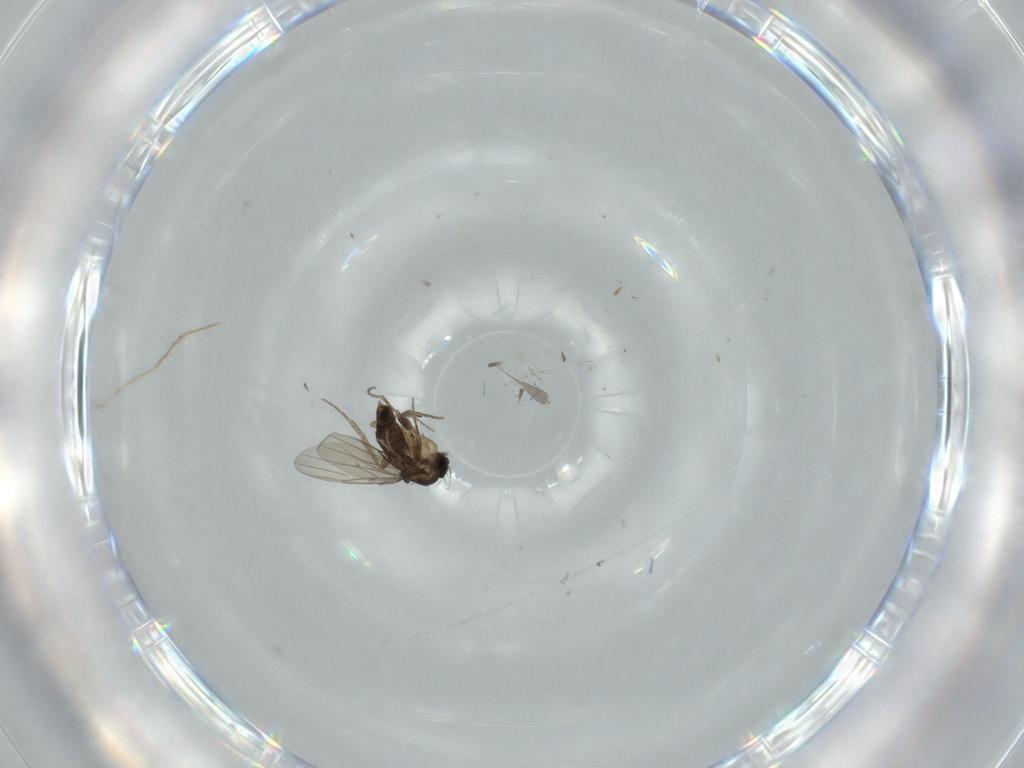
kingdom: Animalia
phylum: Arthropoda
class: Insecta
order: Diptera
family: Phoridae
